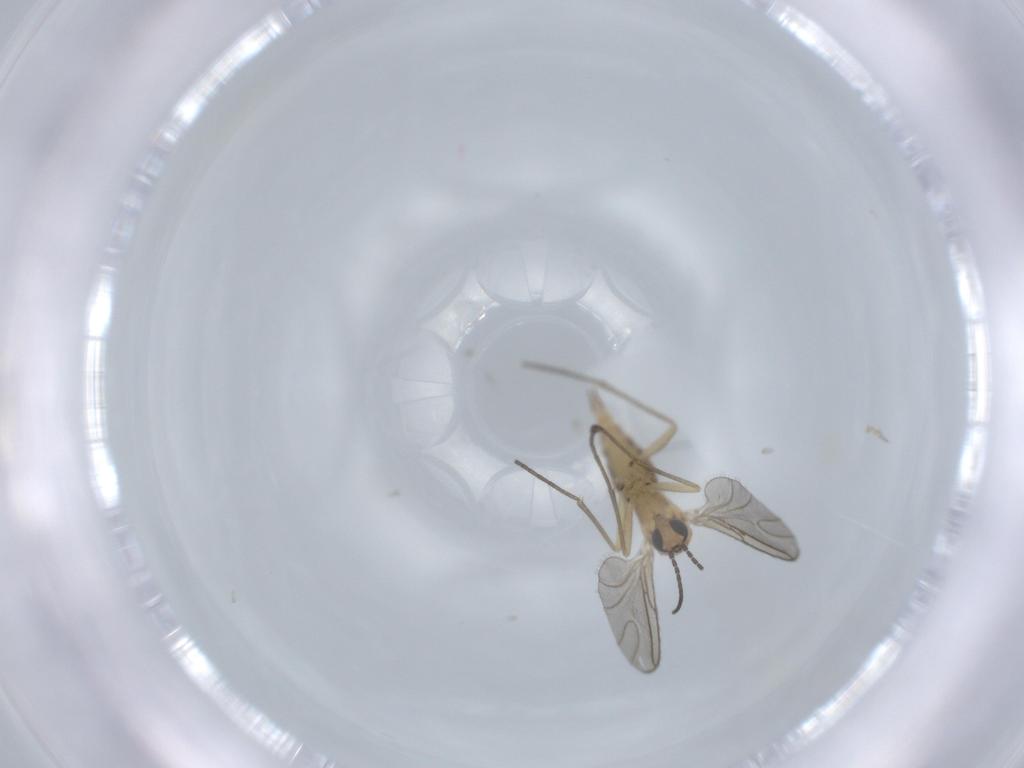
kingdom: Animalia
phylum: Arthropoda
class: Insecta
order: Diptera
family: Sciaridae
